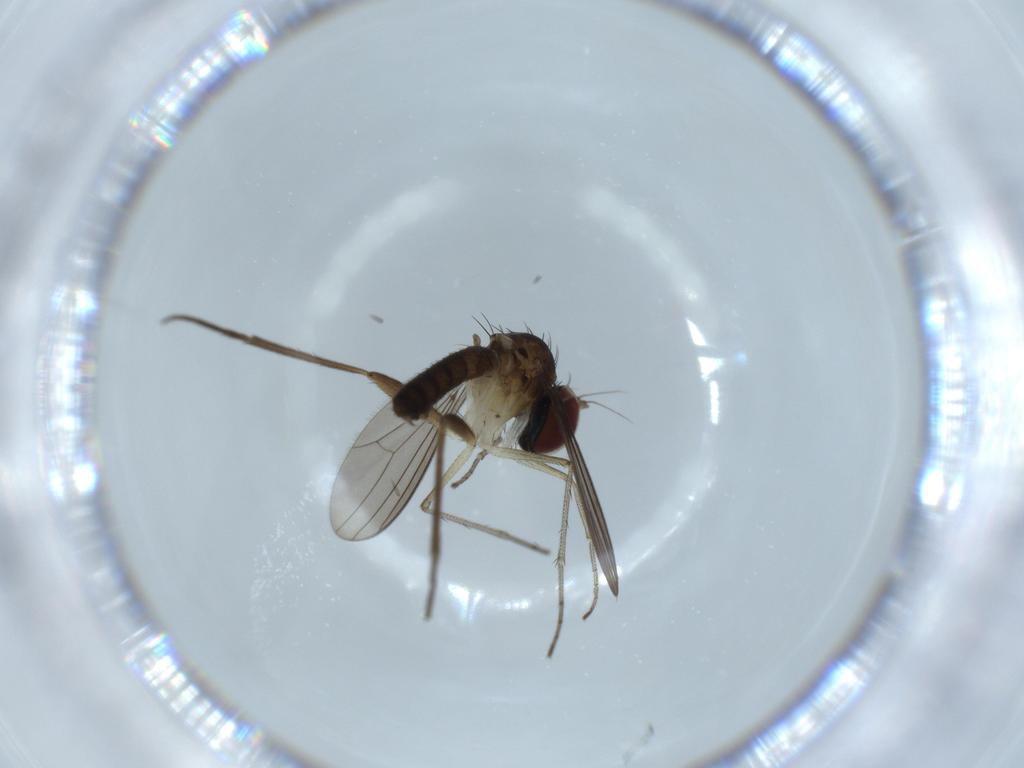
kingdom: Animalia
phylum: Arthropoda
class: Insecta
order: Diptera
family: Dolichopodidae
